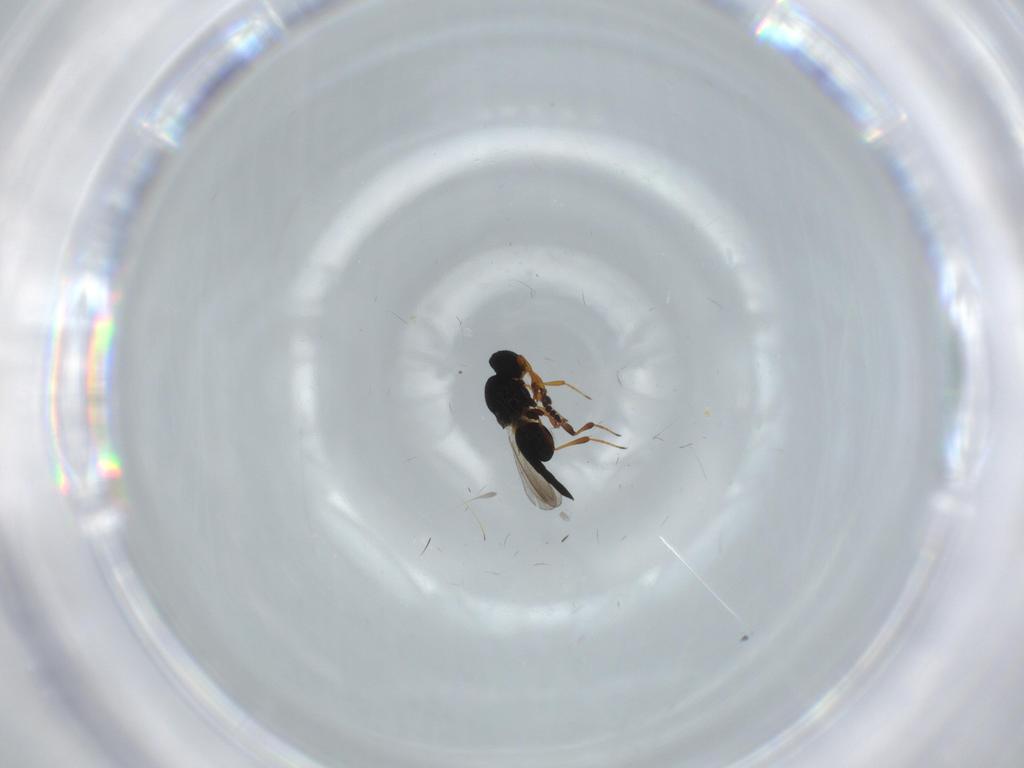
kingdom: Animalia
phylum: Arthropoda
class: Insecta
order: Hymenoptera
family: Platygastridae
